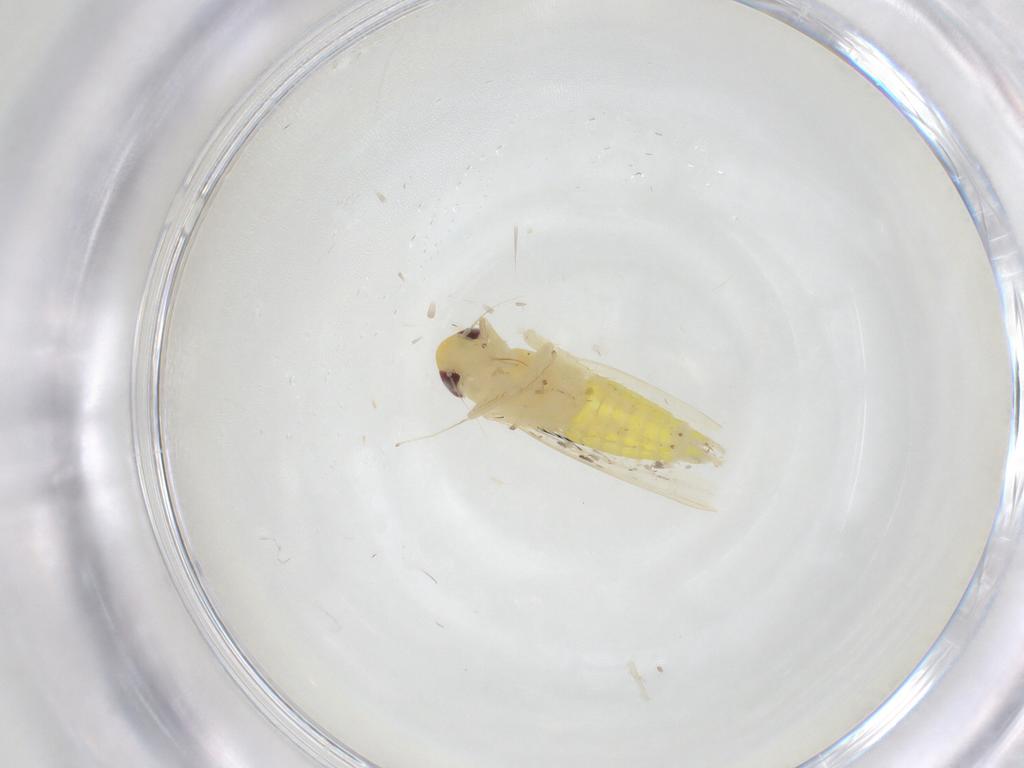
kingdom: Animalia
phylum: Arthropoda
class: Insecta
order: Hemiptera
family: Cicadellidae
